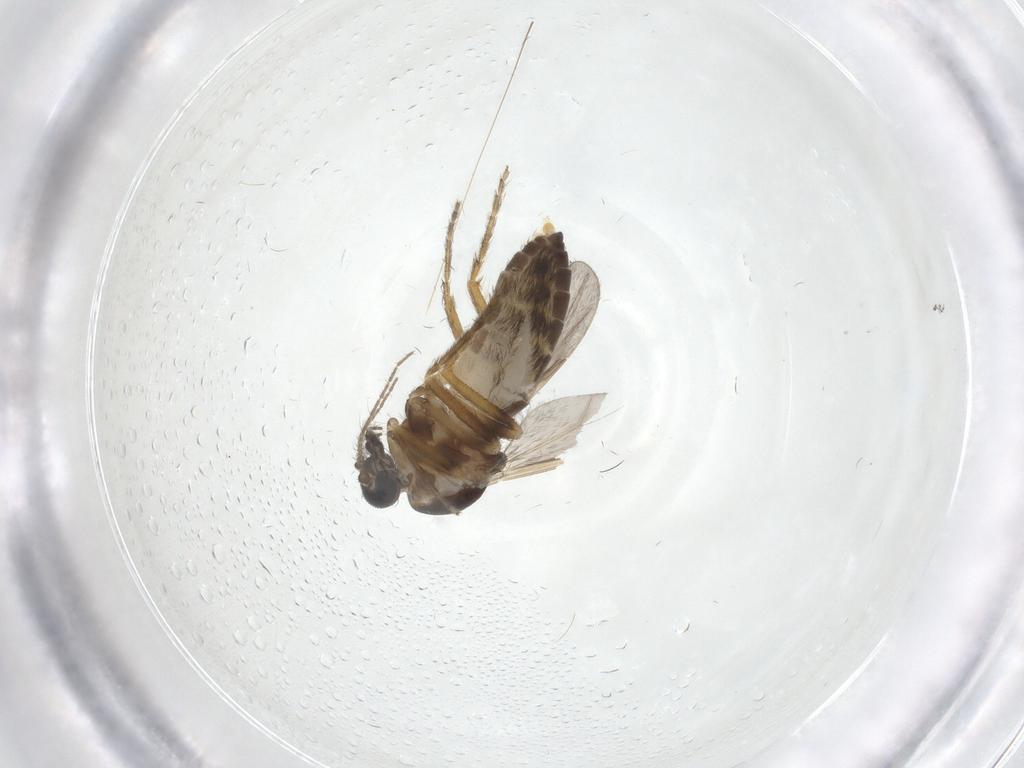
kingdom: Animalia
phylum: Arthropoda
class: Insecta
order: Diptera
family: Ceratopogonidae
